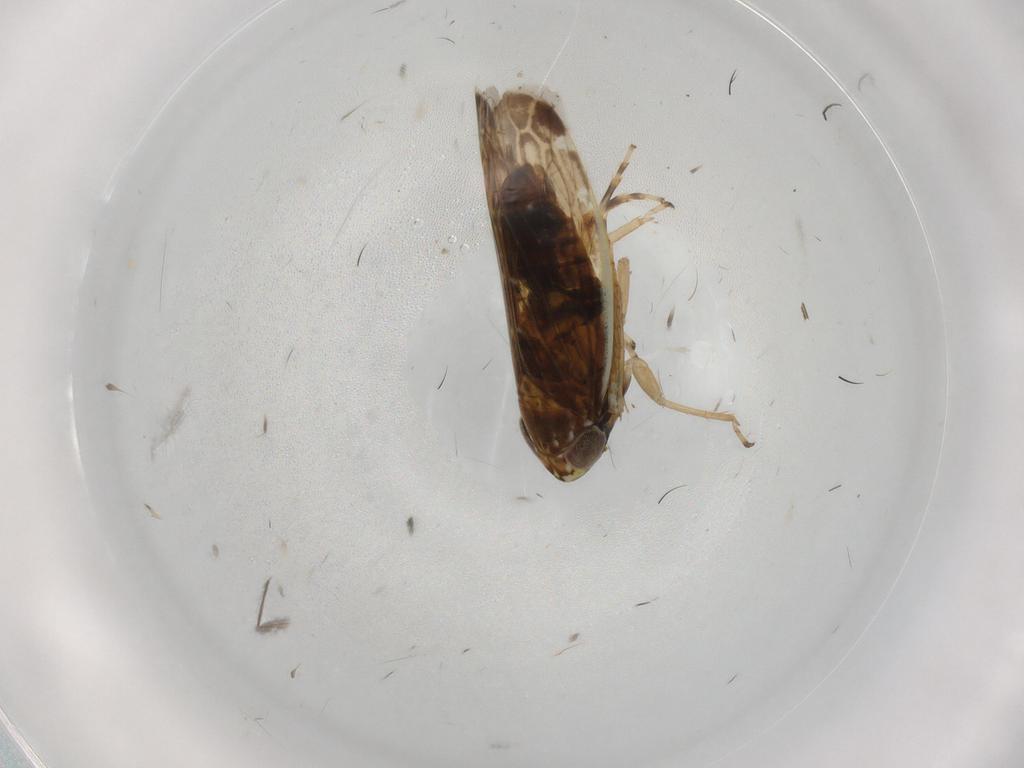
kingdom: Animalia
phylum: Arthropoda
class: Insecta
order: Hemiptera
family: Cicadellidae
